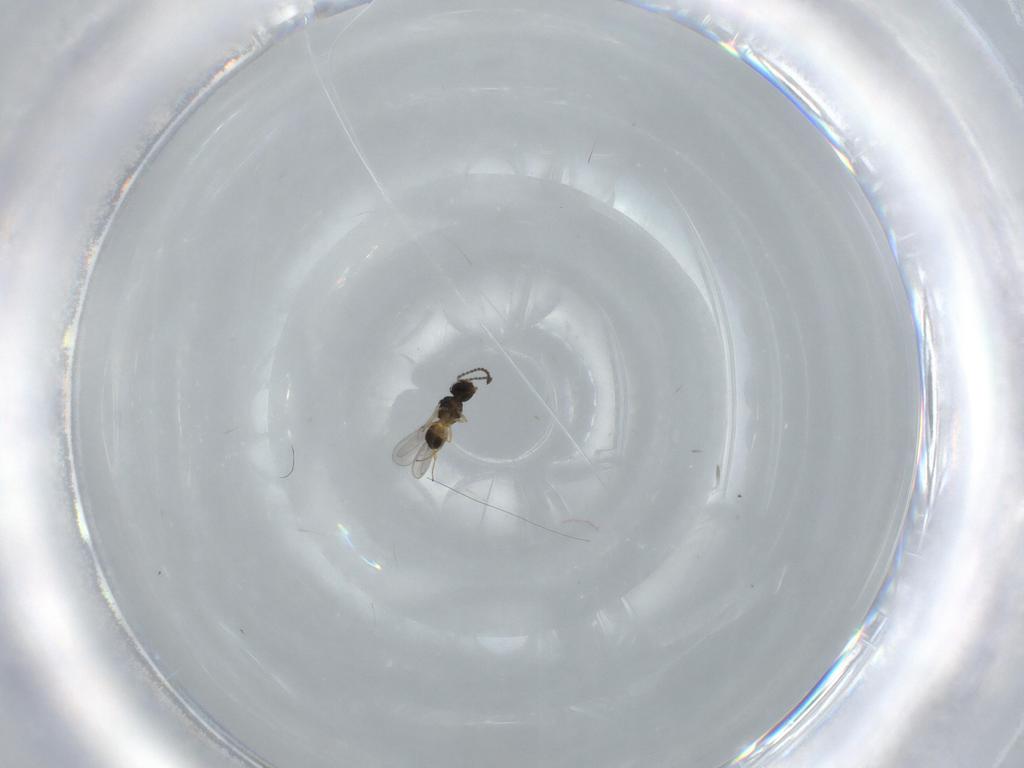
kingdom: Animalia
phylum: Arthropoda
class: Insecta
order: Hymenoptera
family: Scelionidae
